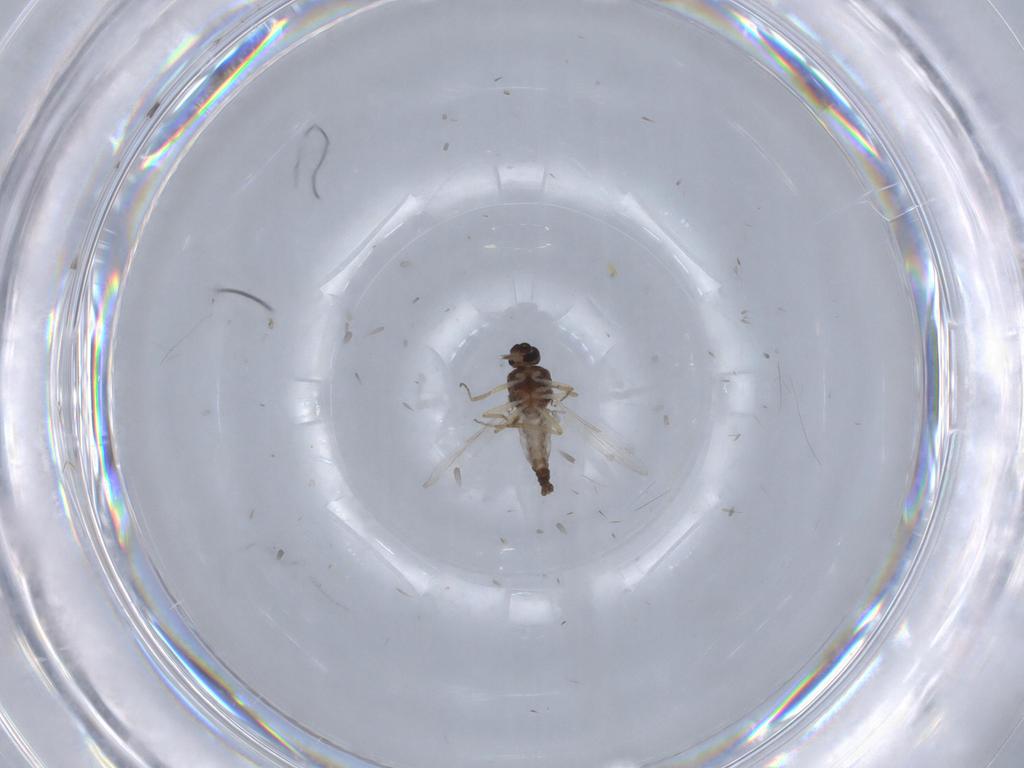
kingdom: Animalia
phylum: Arthropoda
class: Insecta
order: Diptera
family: Ceratopogonidae
